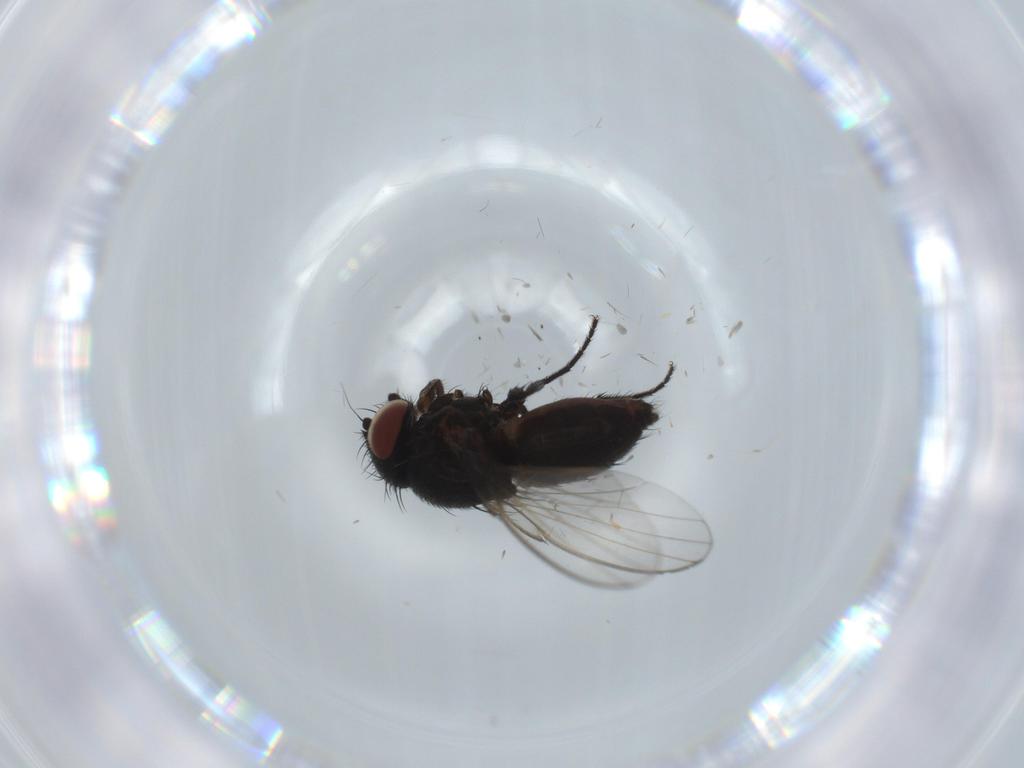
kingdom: Animalia
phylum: Arthropoda
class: Insecta
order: Diptera
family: Milichiidae
